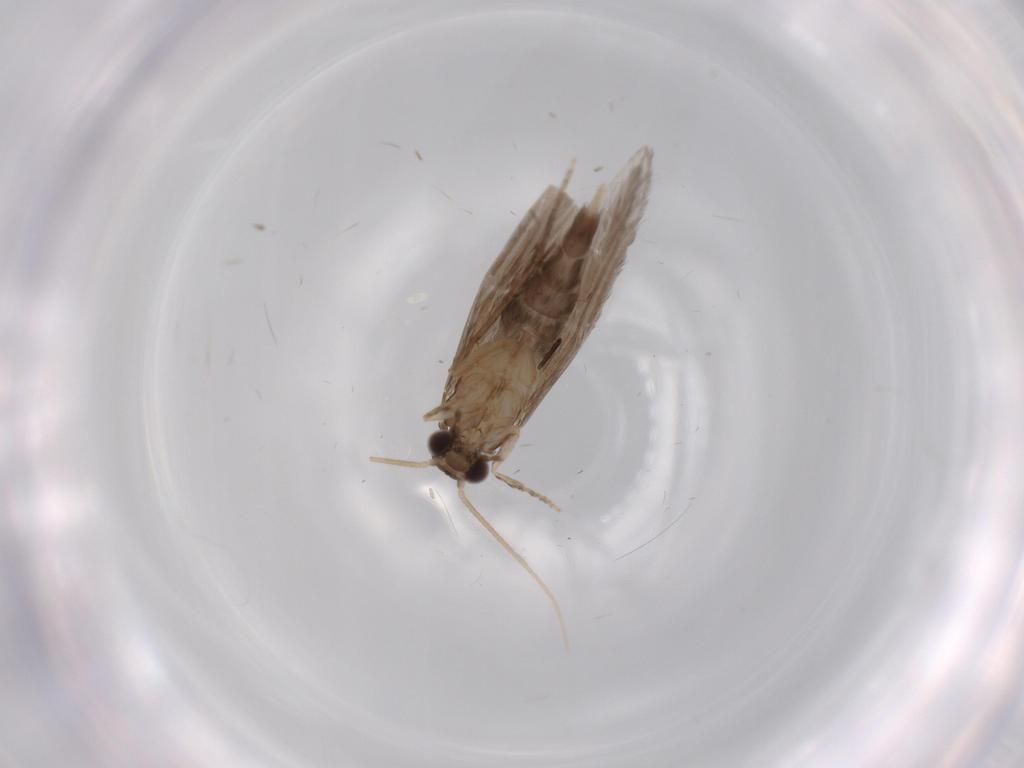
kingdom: Animalia
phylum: Arthropoda
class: Insecta
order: Trichoptera
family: Hydroptilidae
